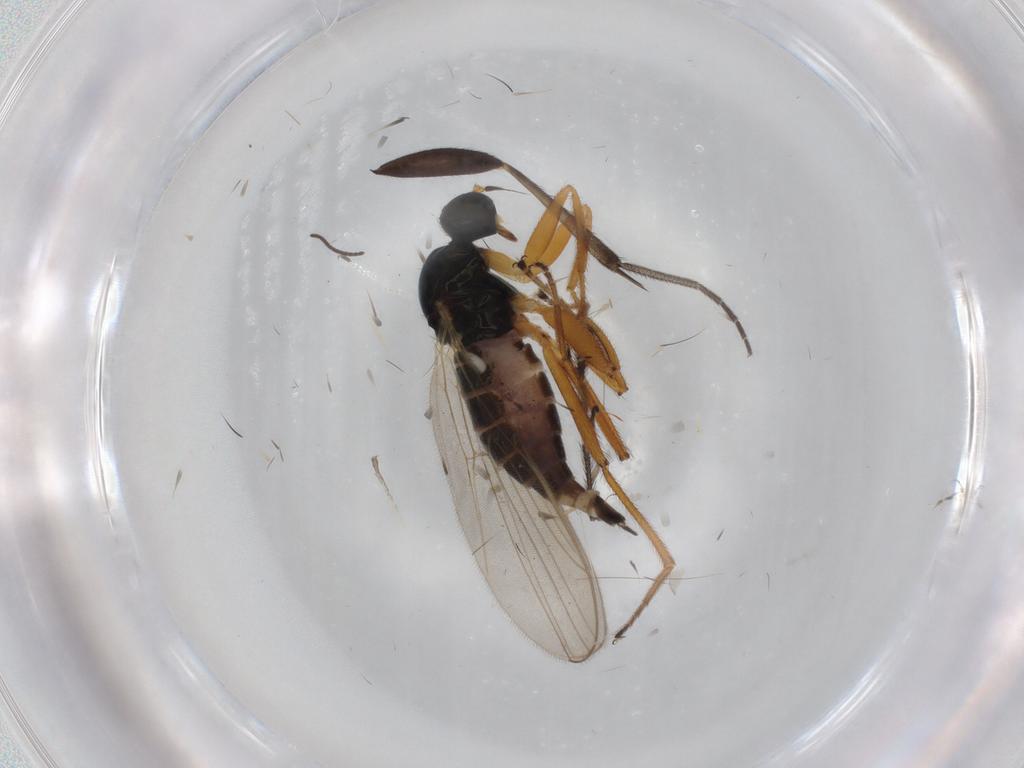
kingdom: Animalia
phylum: Arthropoda
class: Insecta
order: Diptera
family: Hybotidae
